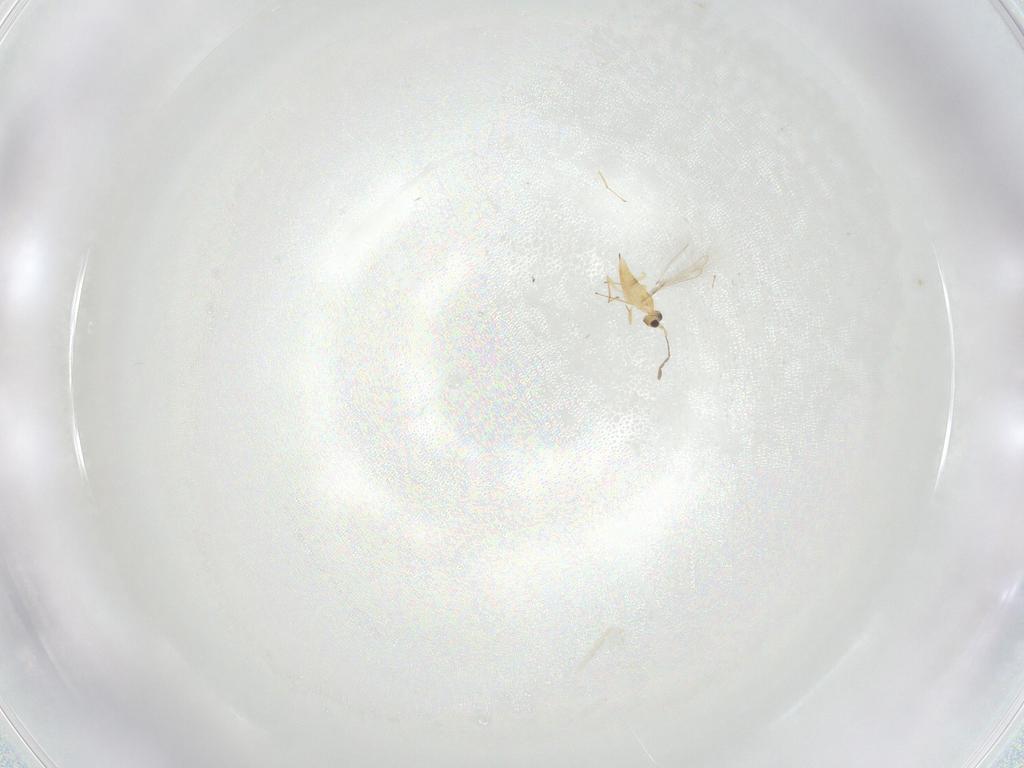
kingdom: Animalia
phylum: Arthropoda
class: Insecta
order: Hymenoptera
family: Mymaridae
